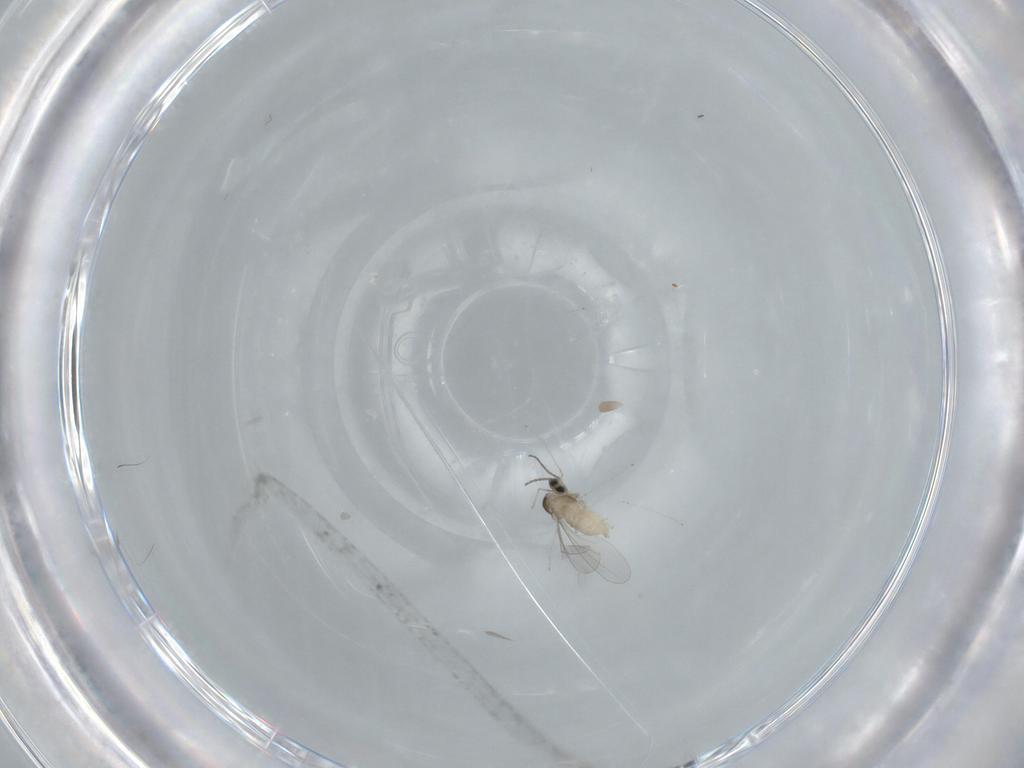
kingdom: Animalia
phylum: Arthropoda
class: Insecta
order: Diptera
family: Cecidomyiidae
